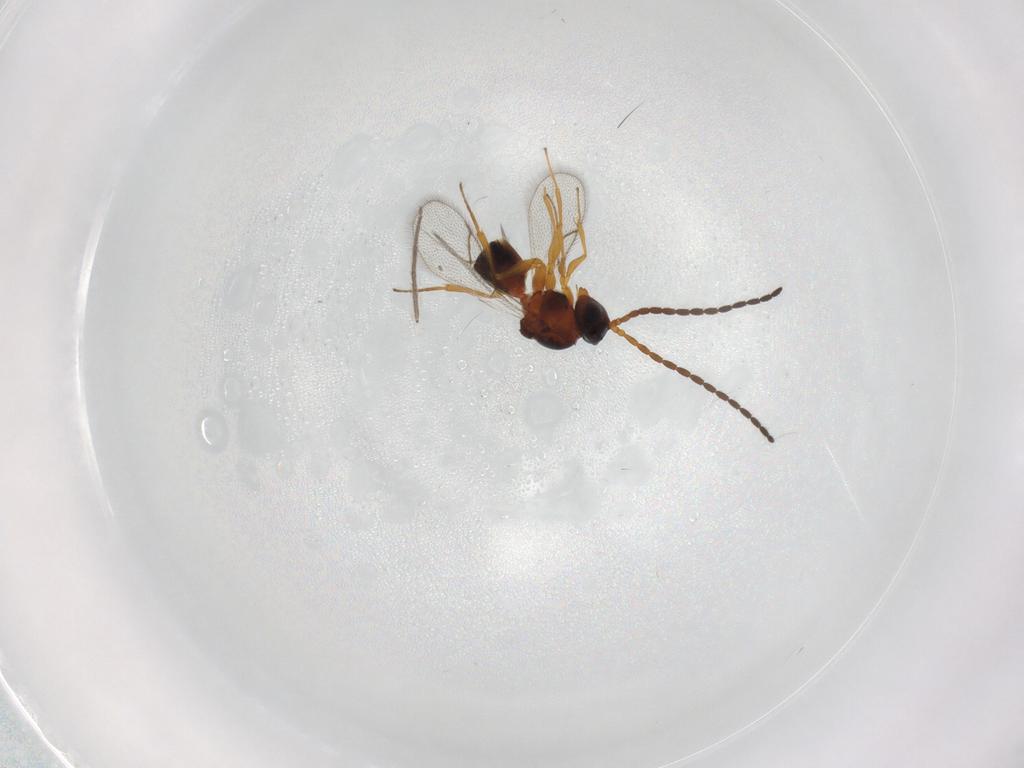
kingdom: Animalia
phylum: Arthropoda
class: Insecta
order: Hymenoptera
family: Figitidae
